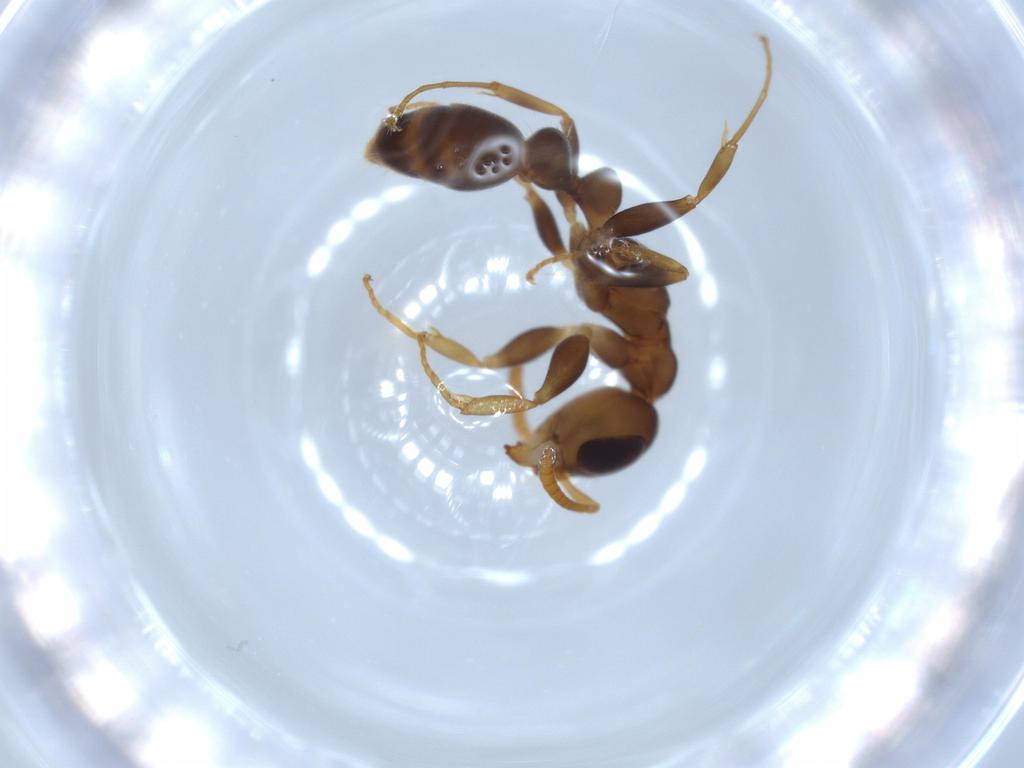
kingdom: Animalia
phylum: Arthropoda
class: Insecta
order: Hymenoptera
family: Formicidae
